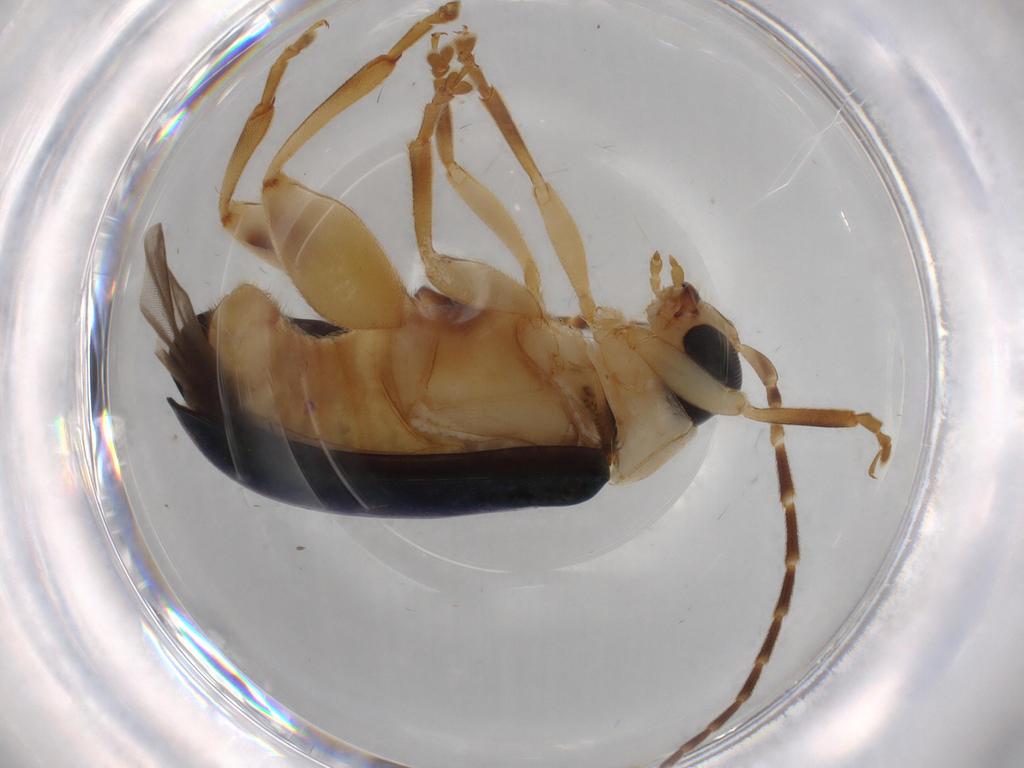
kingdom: Animalia
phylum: Arthropoda
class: Insecta
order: Coleoptera
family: Chrysomelidae
